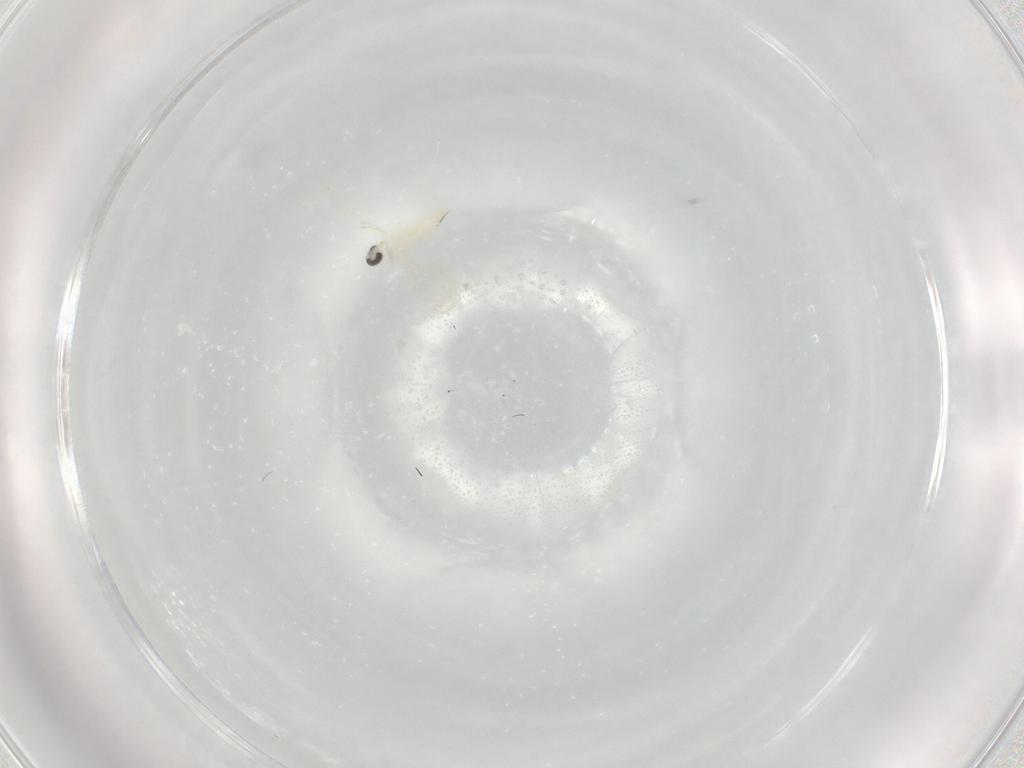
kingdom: Animalia
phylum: Arthropoda
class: Insecta
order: Diptera
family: Cecidomyiidae
